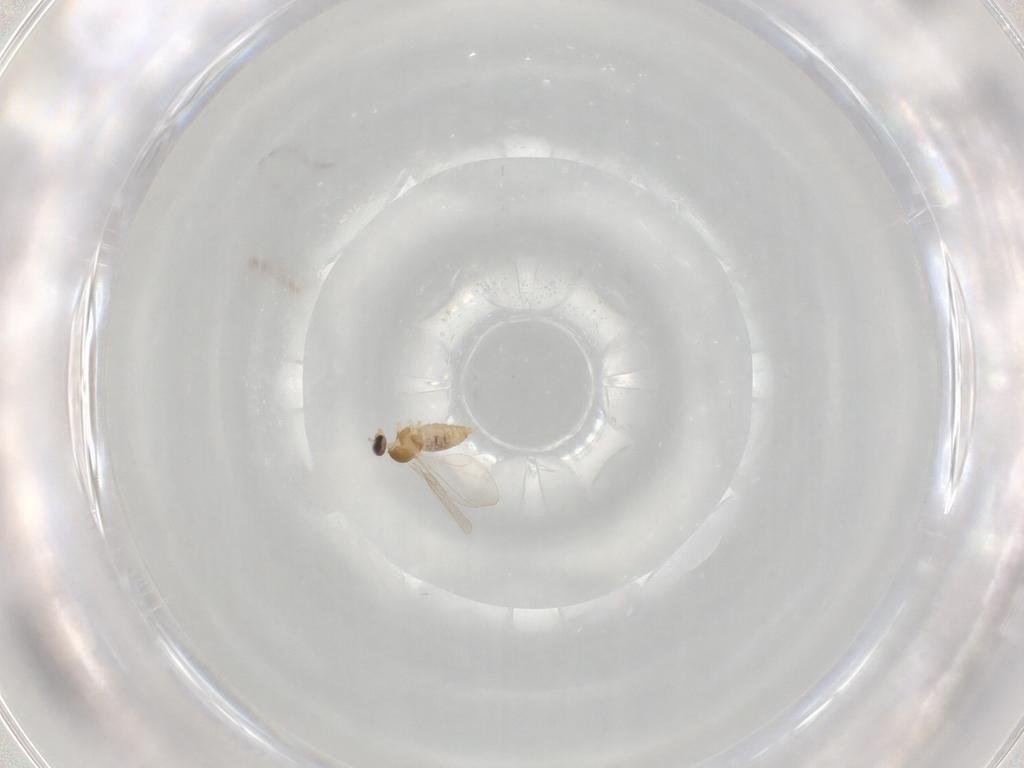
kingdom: Animalia
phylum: Arthropoda
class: Insecta
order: Diptera
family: Cecidomyiidae
